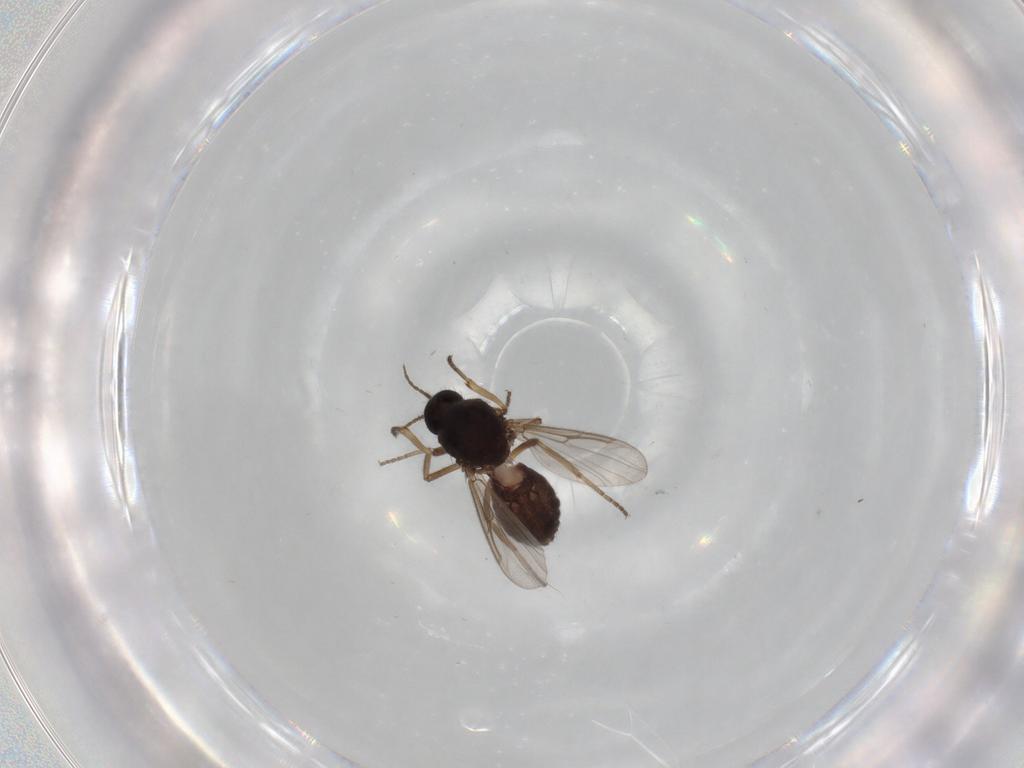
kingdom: Animalia
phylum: Arthropoda
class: Insecta
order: Diptera
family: Ceratopogonidae
